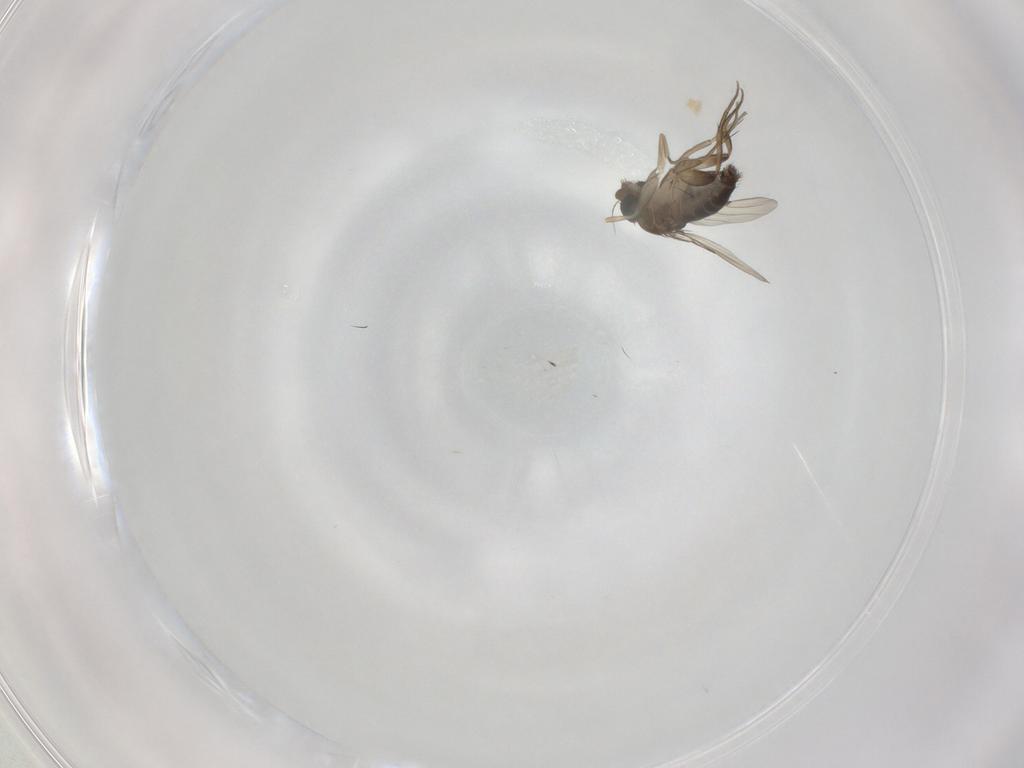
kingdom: Animalia
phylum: Arthropoda
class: Insecta
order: Diptera
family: Phoridae
